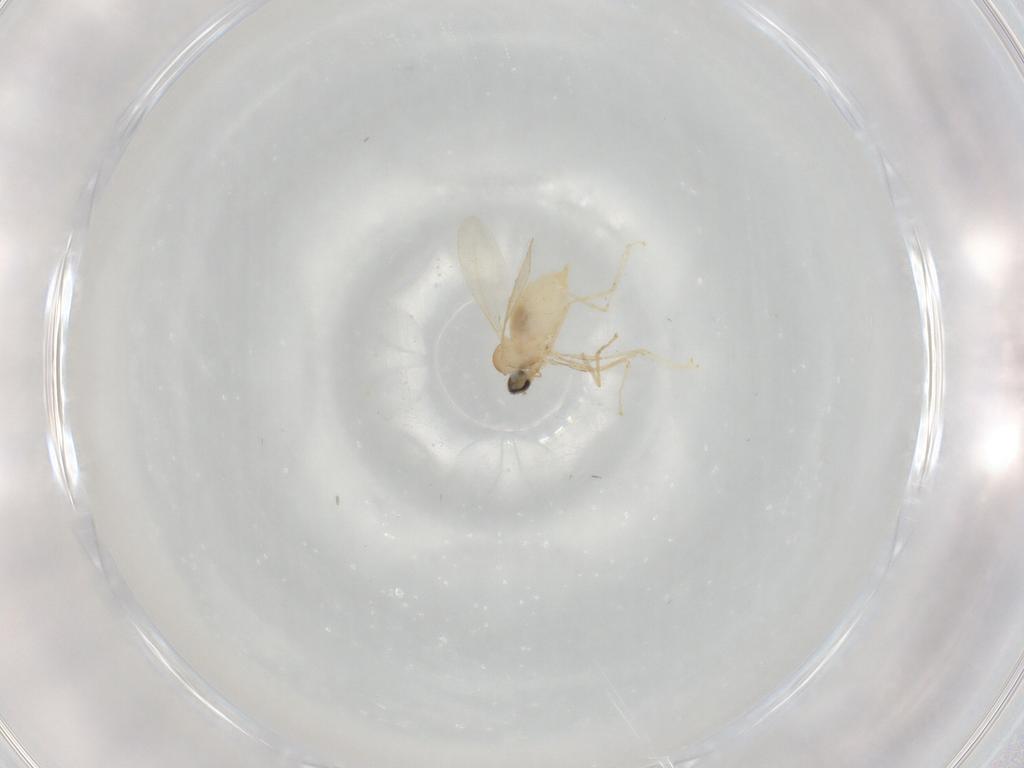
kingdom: Animalia
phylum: Arthropoda
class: Insecta
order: Diptera
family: Cecidomyiidae
